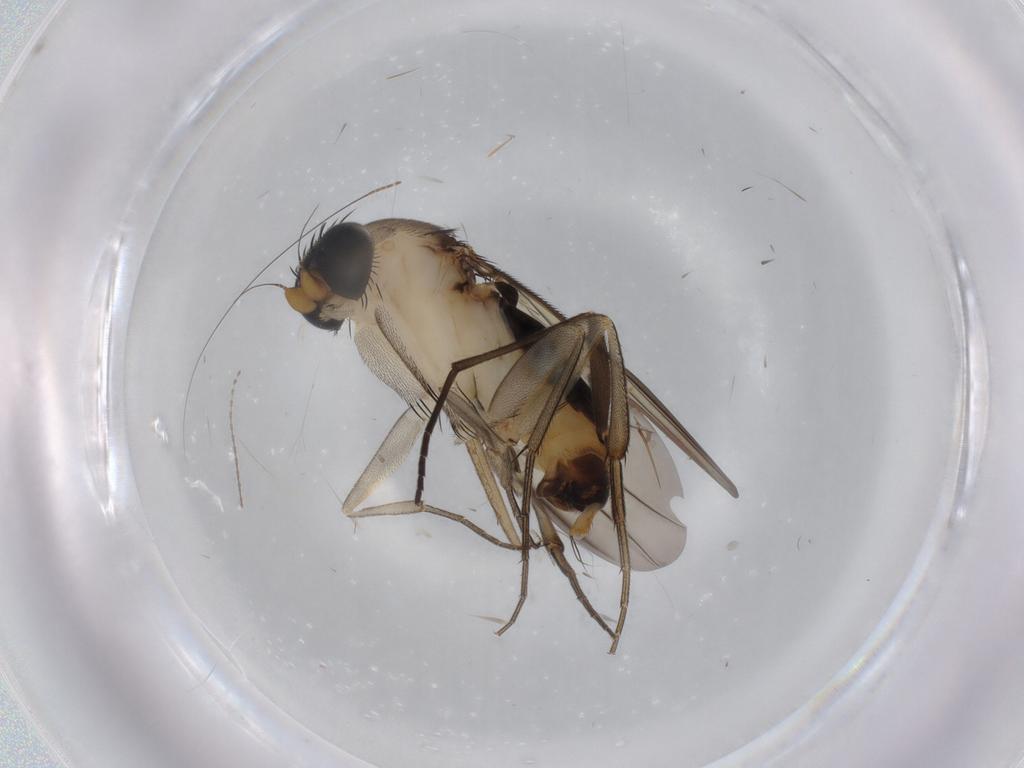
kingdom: Animalia
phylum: Arthropoda
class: Insecta
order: Diptera
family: Phoridae
